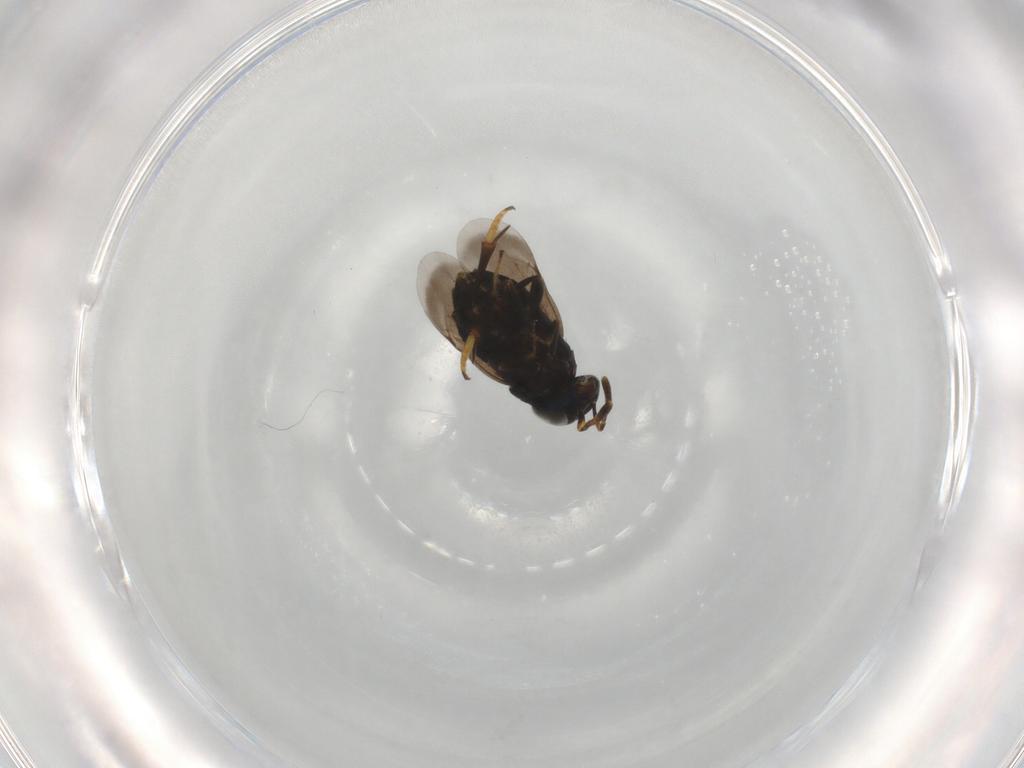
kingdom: Animalia
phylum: Arthropoda
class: Insecta
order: Hymenoptera
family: Encyrtidae
